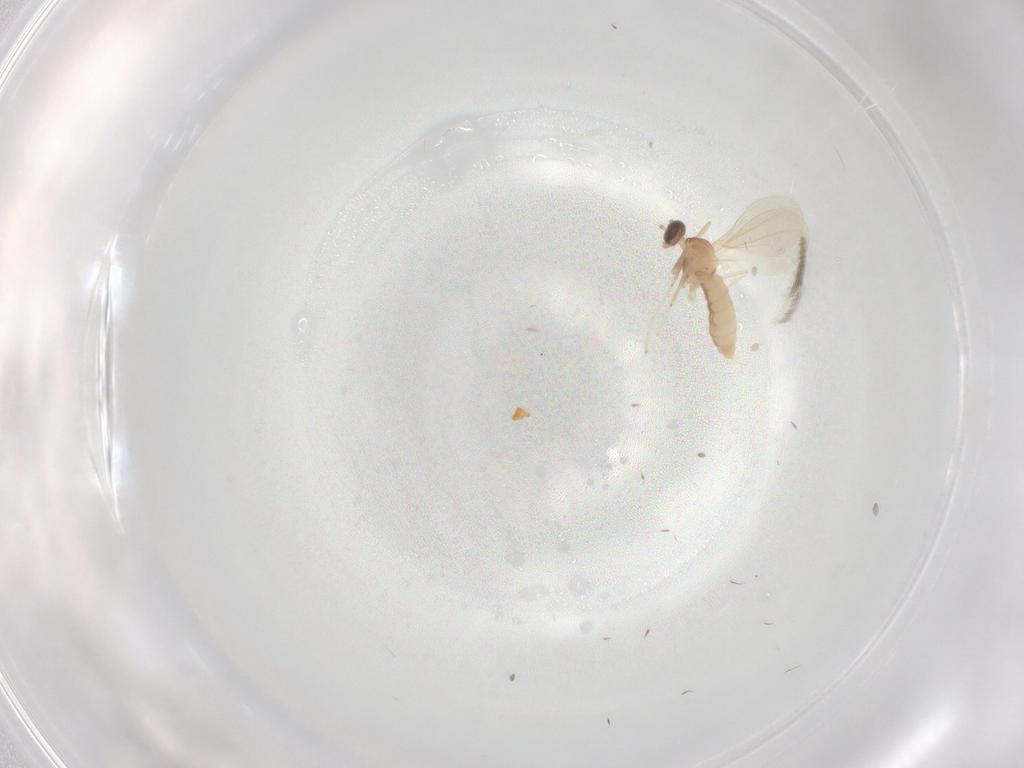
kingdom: Animalia
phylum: Arthropoda
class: Insecta
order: Diptera
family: Cecidomyiidae
